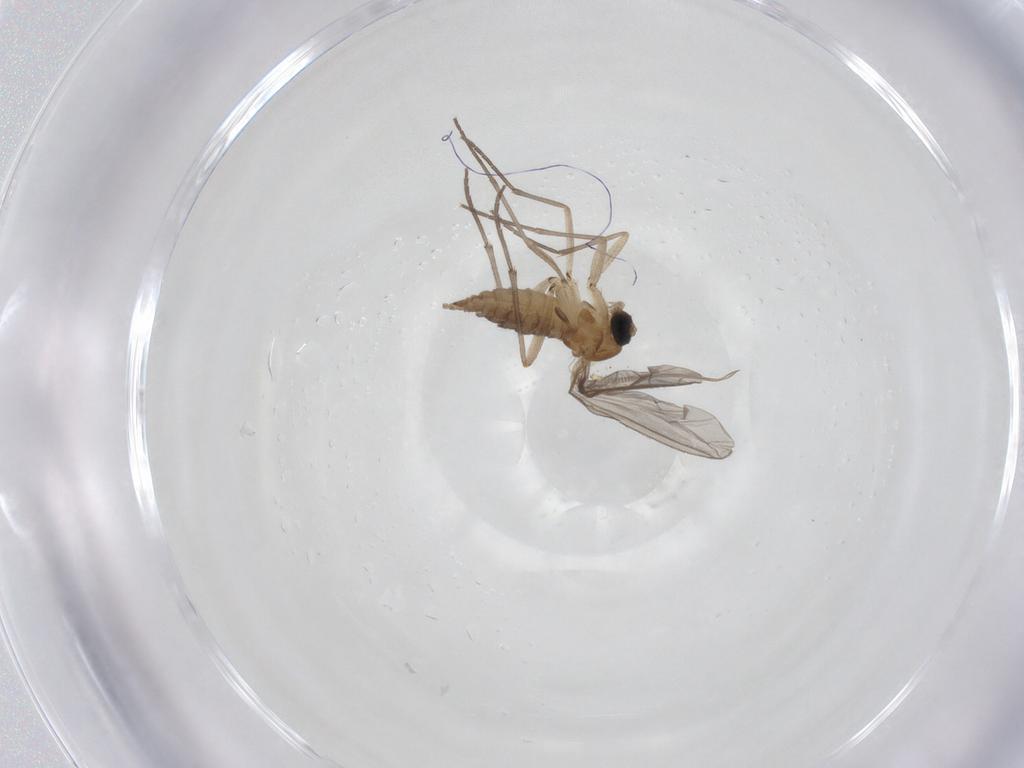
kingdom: Animalia
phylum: Arthropoda
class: Insecta
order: Diptera
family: Sciaridae
